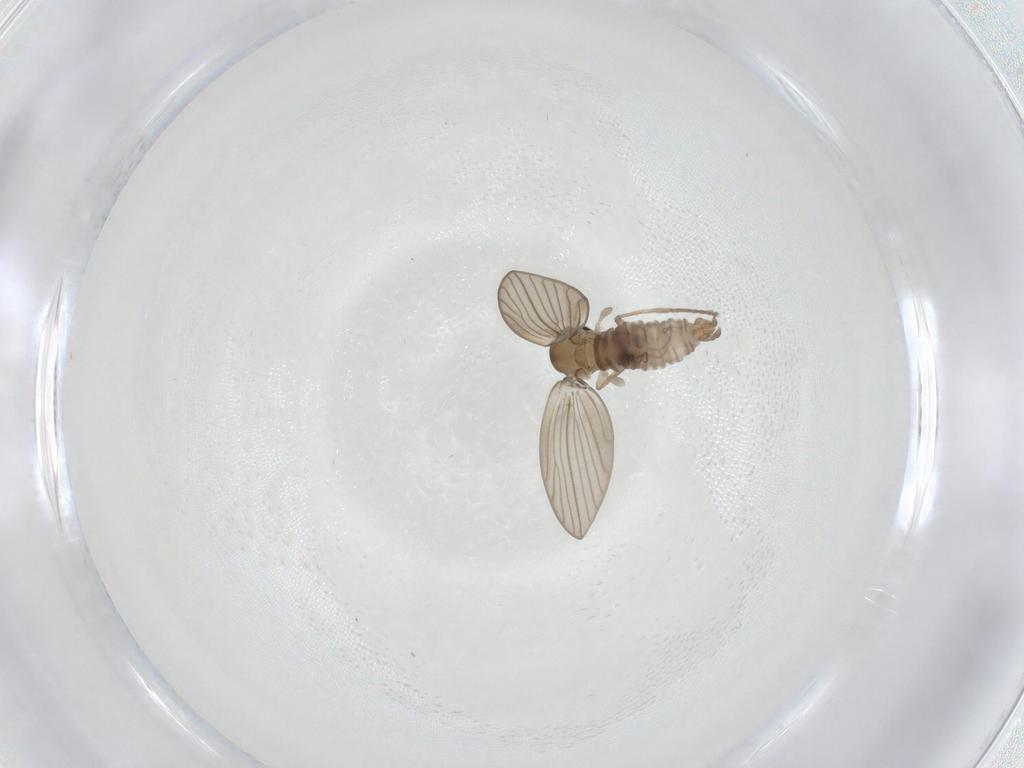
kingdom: Animalia
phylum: Arthropoda
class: Insecta
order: Diptera
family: Psychodidae
